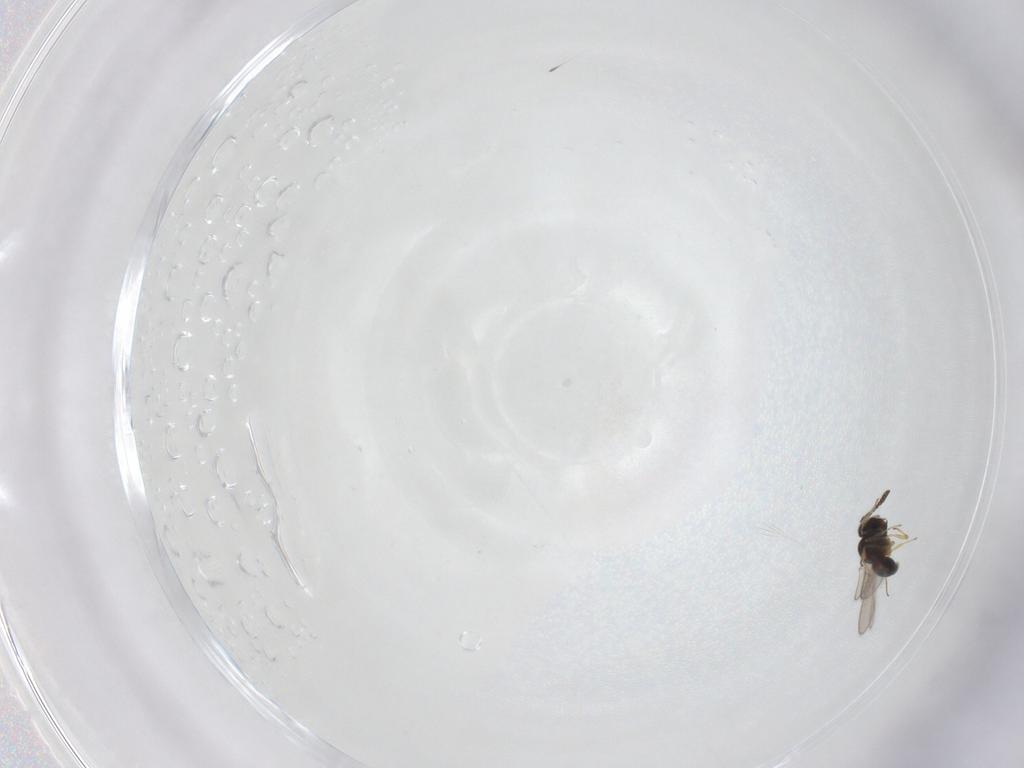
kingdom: Animalia
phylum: Arthropoda
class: Insecta
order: Hymenoptera
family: Scelionidae
